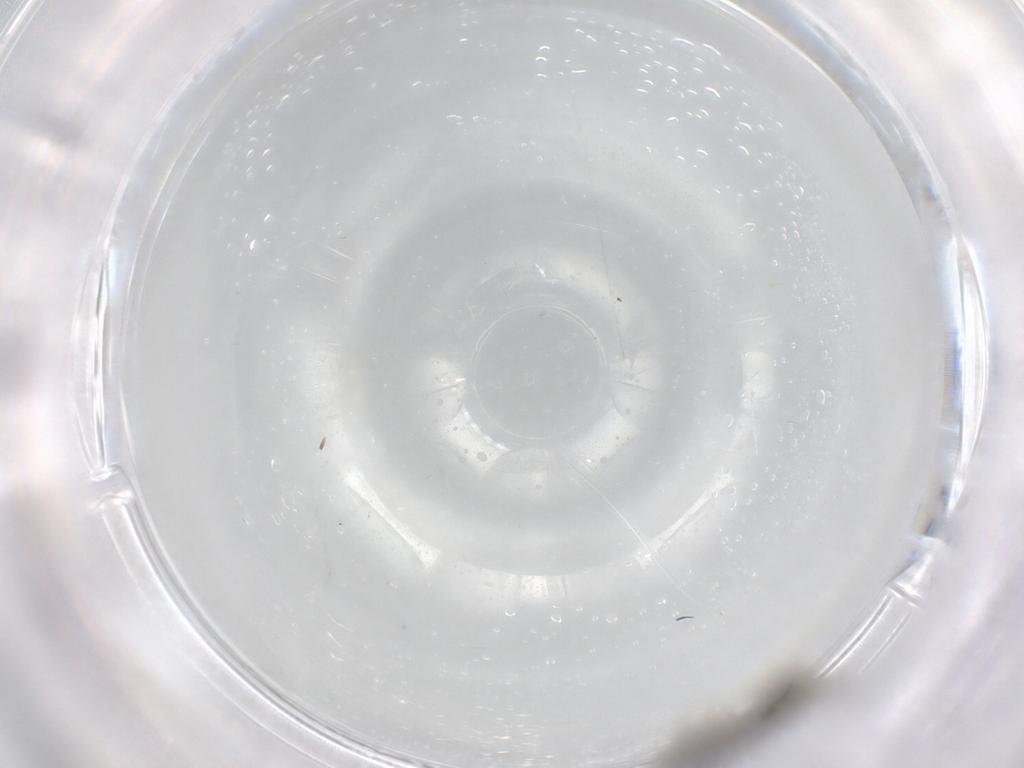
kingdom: Animalia
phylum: Arthropoda
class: Insecta
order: Diptera
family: Chironomidae
